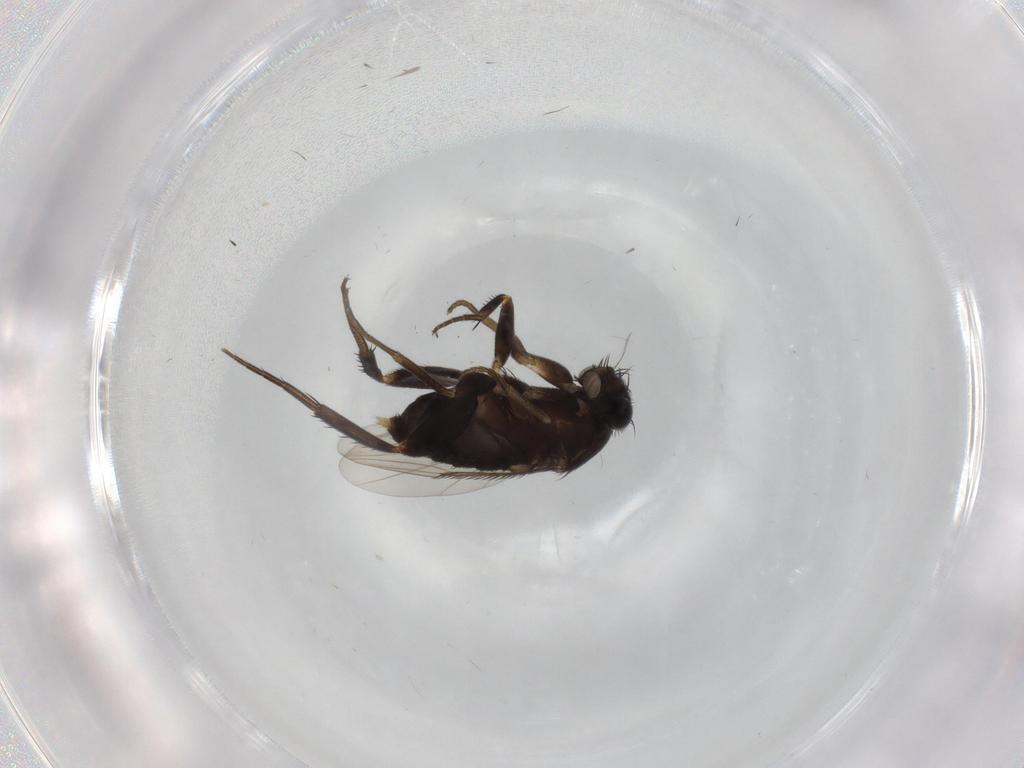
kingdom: Animalia
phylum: Arthropoda
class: Insecta
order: Diptera
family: Phoridae
